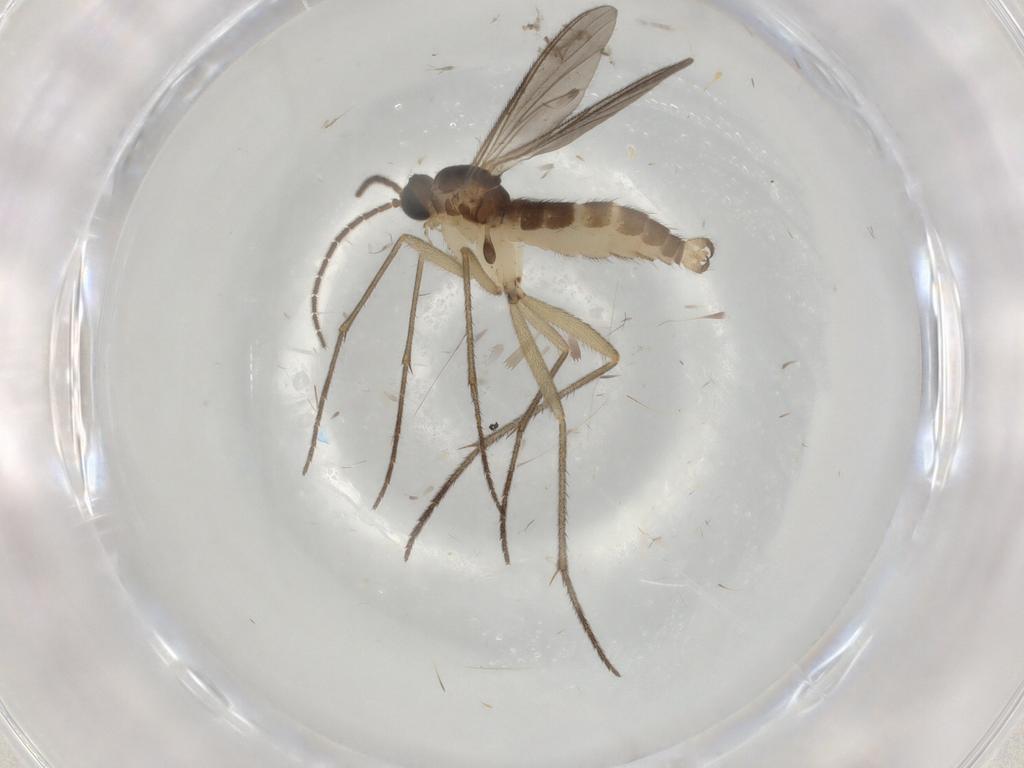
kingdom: Animalia
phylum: Arthropoda
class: Insecta
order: Diptera
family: Sciaridae
